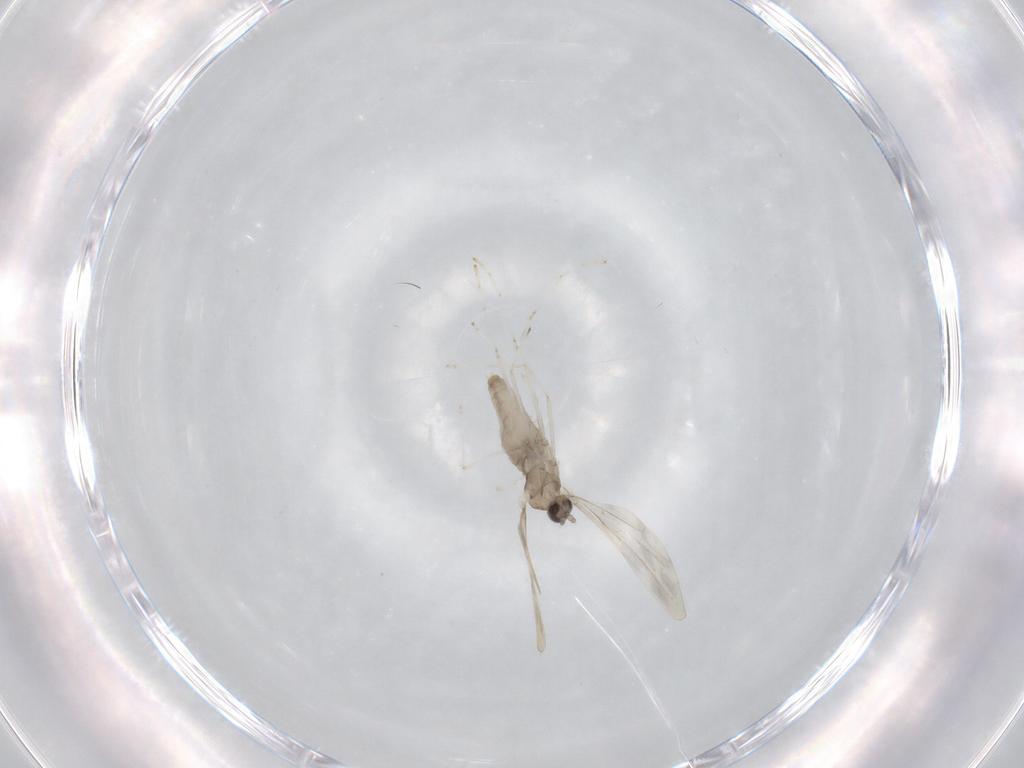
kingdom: Animalia
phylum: Arthropoda
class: Insecta
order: Diptera
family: Cecidomyiidae
